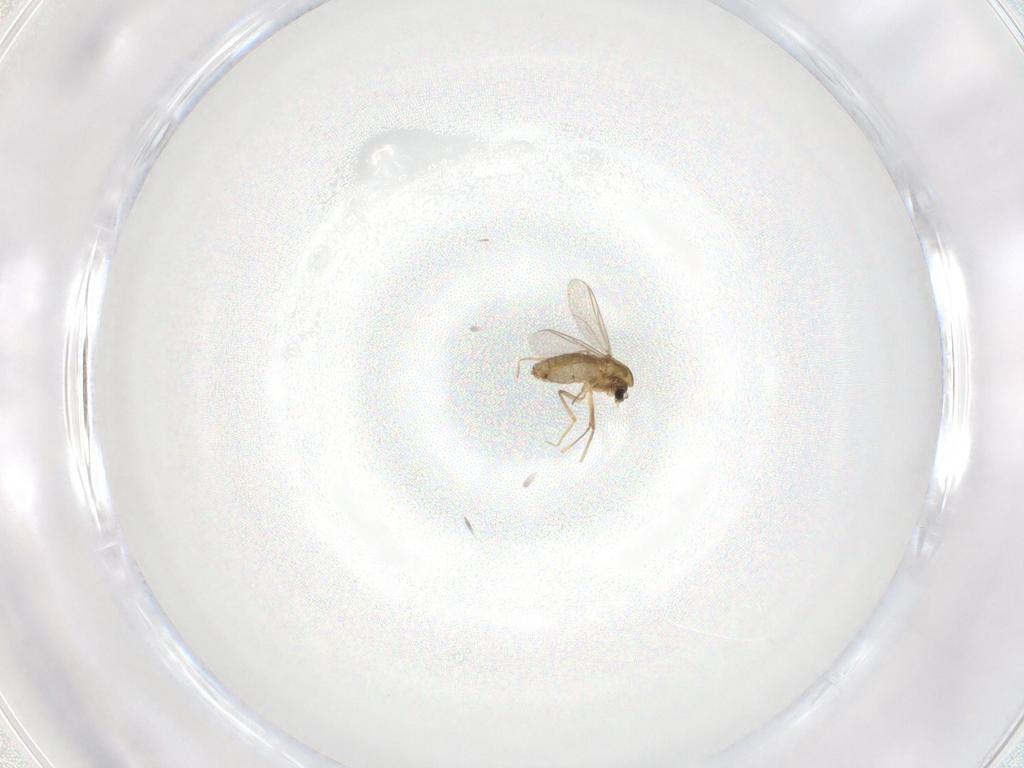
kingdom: Animalia
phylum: Arthropoda
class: Insecta
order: Diptera
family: Chironomidae
